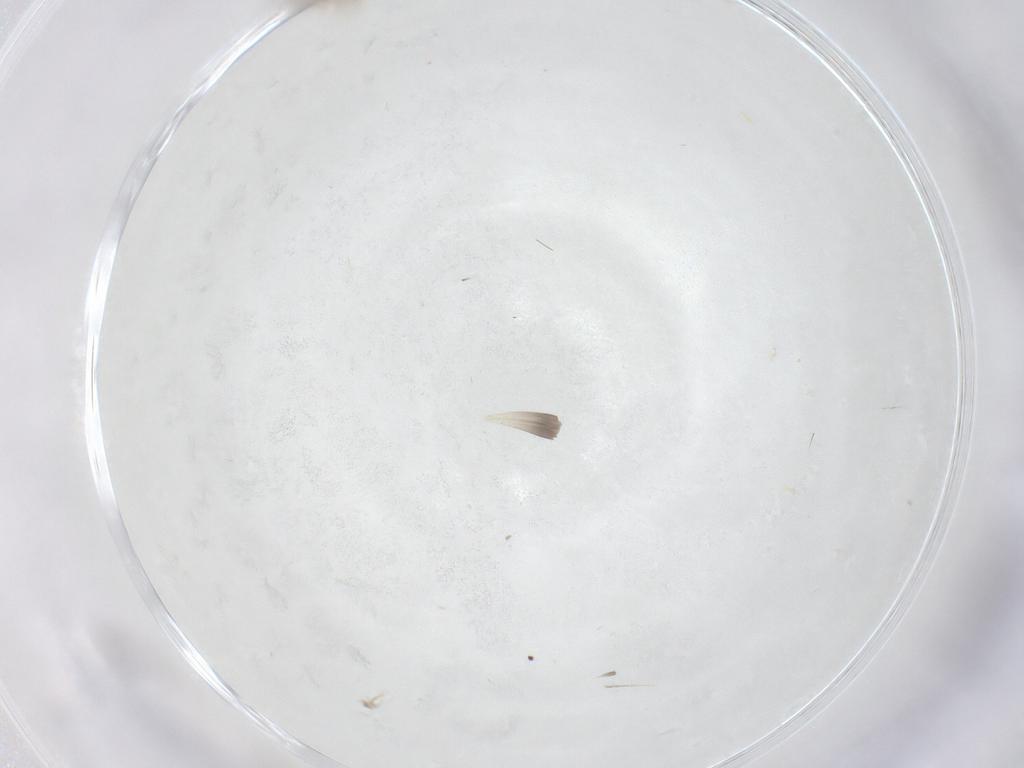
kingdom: Animalia
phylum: Arthropoda
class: Insecta
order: Diptera
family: Chironomidae
